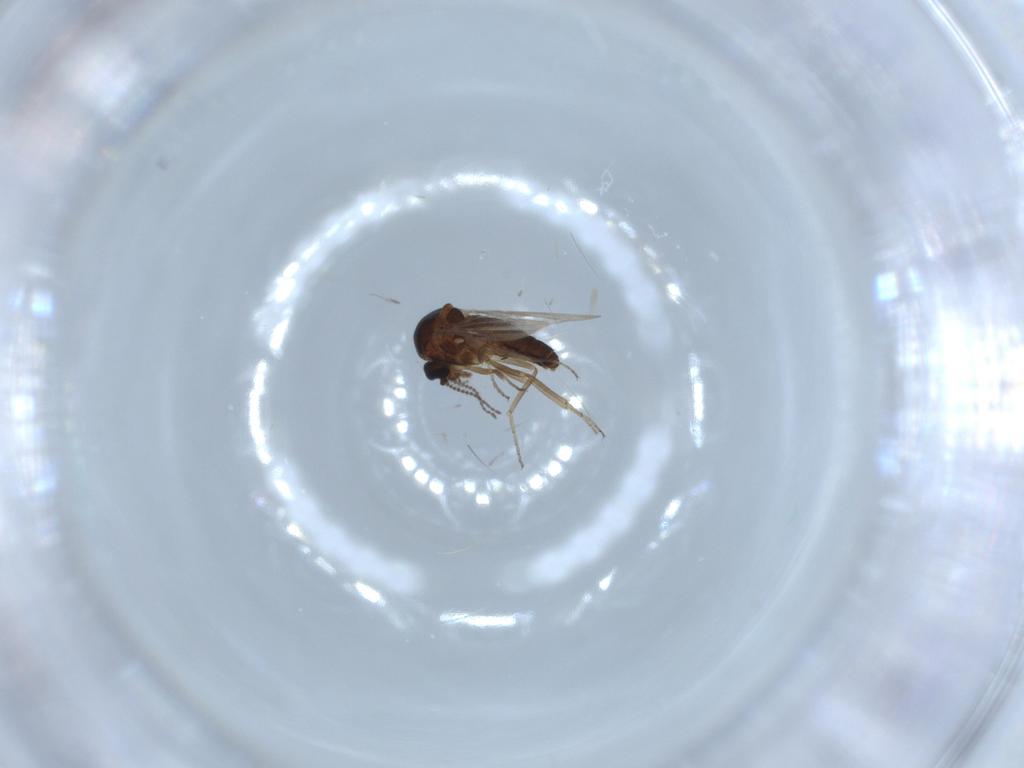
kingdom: Animalia
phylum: Arthropoda
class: Insecta
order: Diptera
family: Ceratopogonidae
